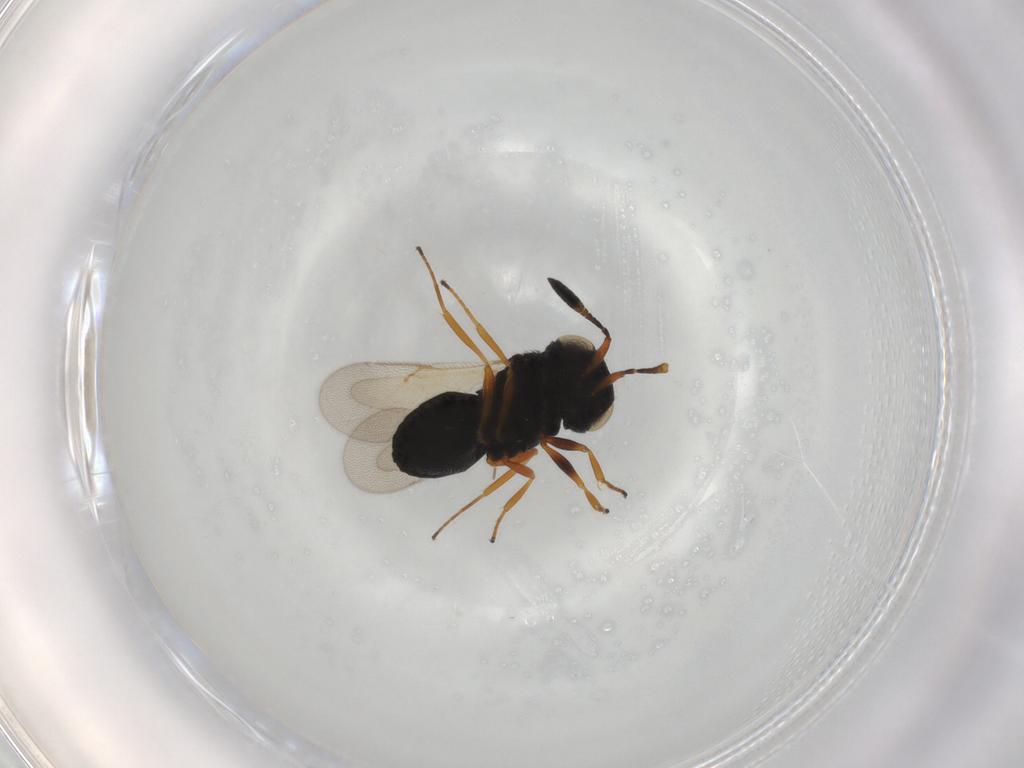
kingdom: Animalia
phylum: Arthropoda
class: Insecta
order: Hymenoptera
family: Scelionidae
